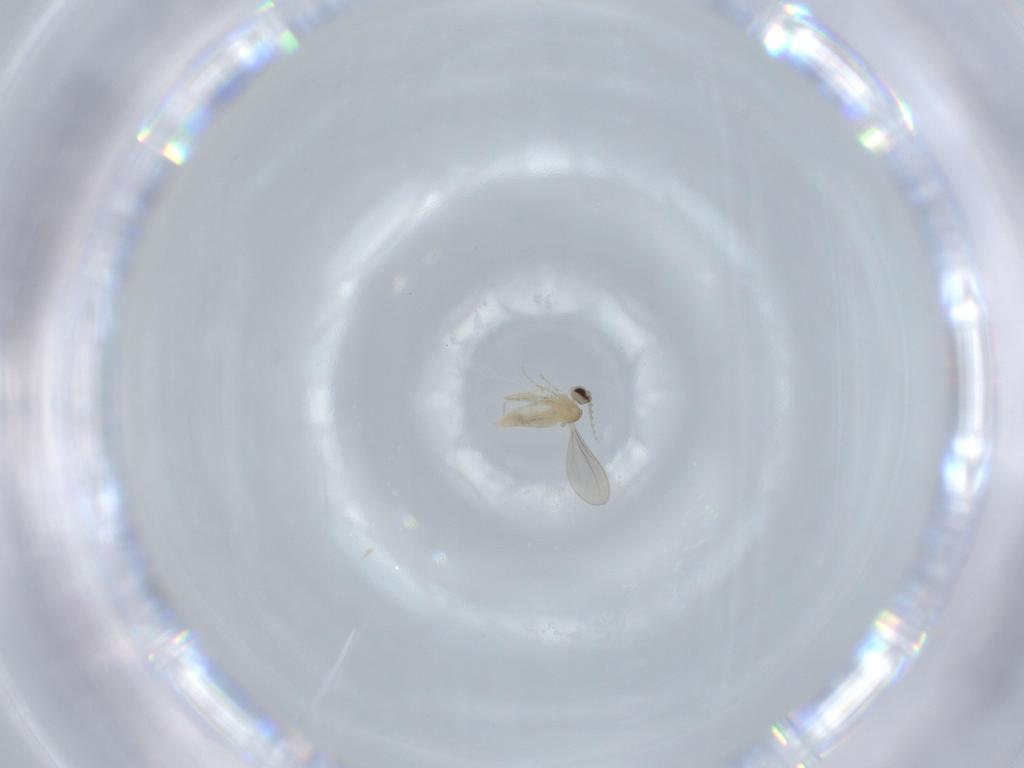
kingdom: Animalia
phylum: Arthropoda
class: Insecta
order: Diptera
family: Cecidomyiidae
